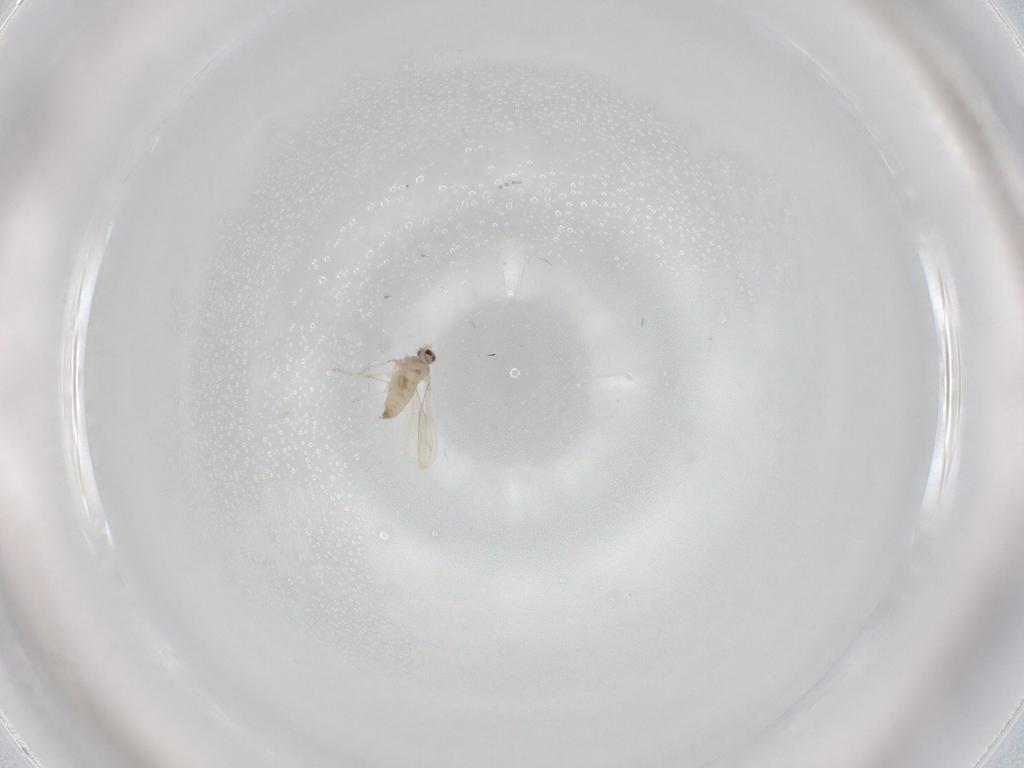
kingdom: Animalia
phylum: Arthropoda
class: Insecta
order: Diptera
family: Cecidomyiidae
